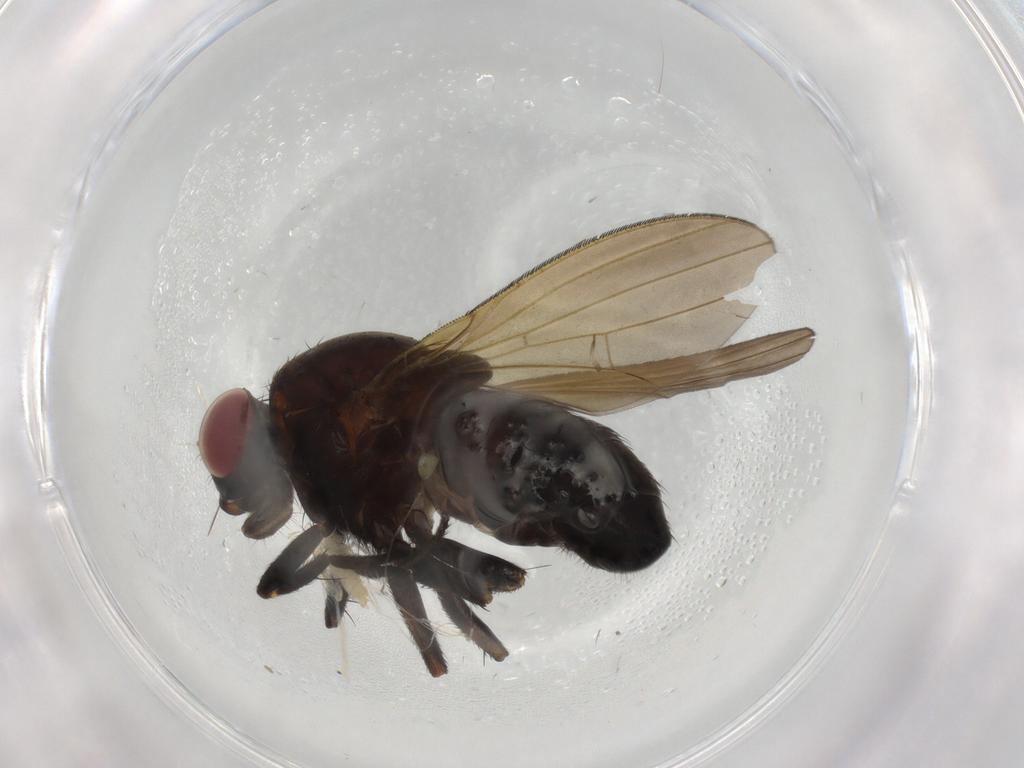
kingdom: Animalia
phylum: Arthropoda
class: Insecta
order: Diptera
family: Lauxaniidae
